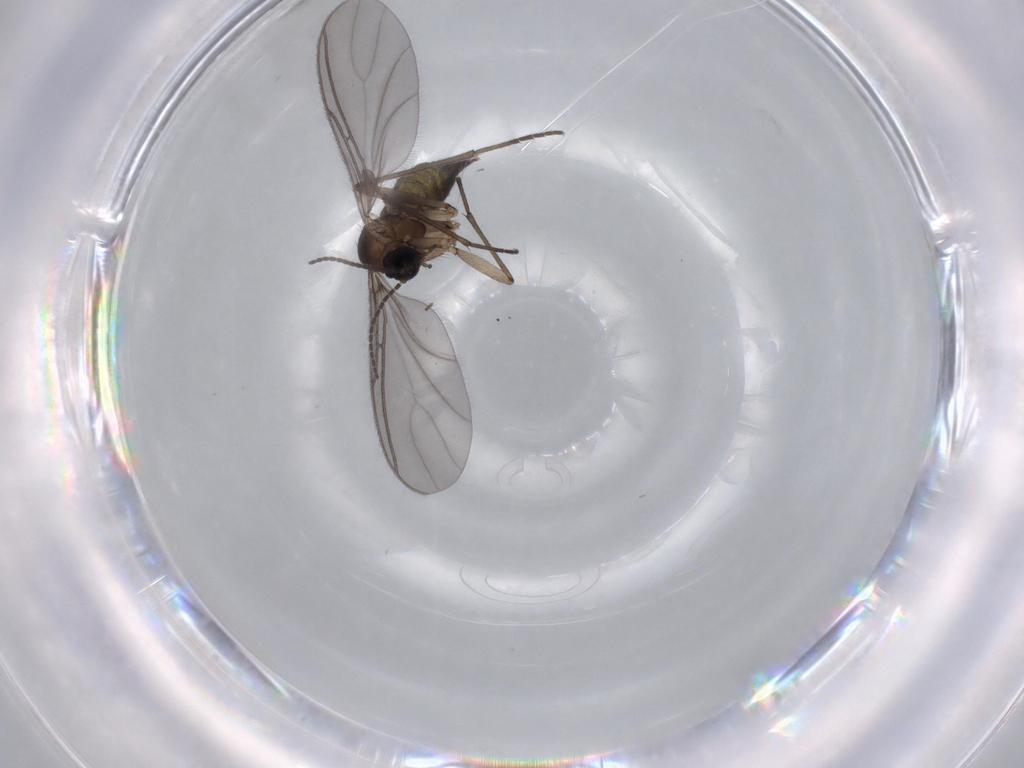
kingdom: Animalia
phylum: Arthropoda
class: Insecta
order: Diptera
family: Sciaridae
